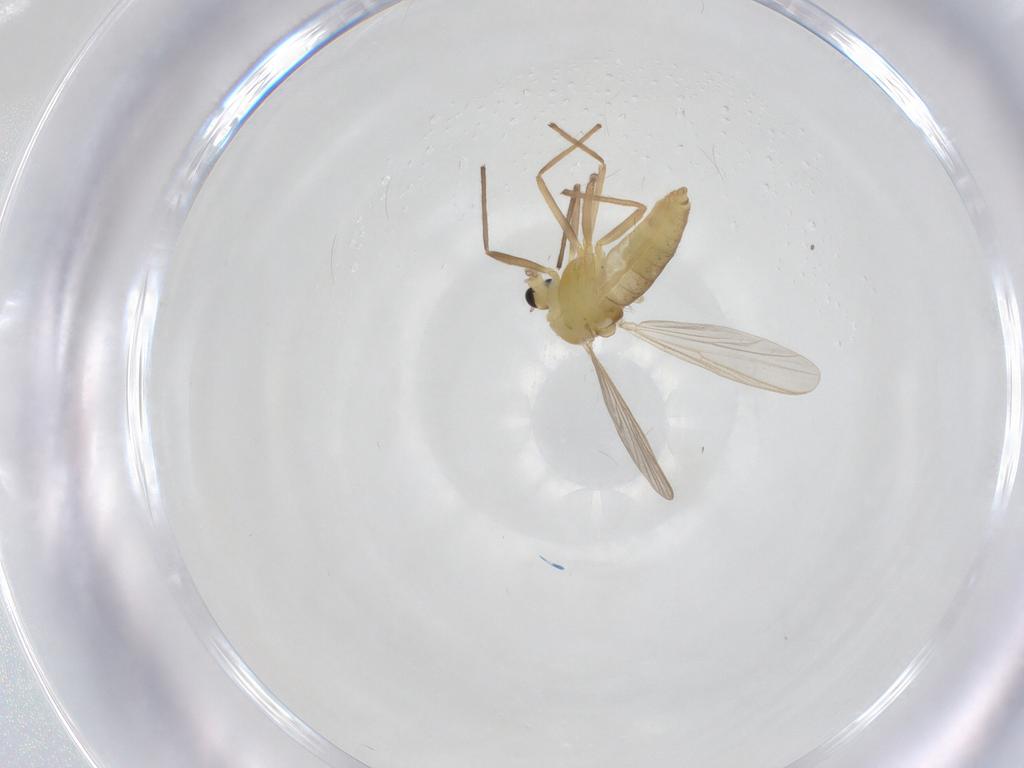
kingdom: Animalia
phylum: Arthropoda
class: Insecta
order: Diptera
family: Chironomidae
